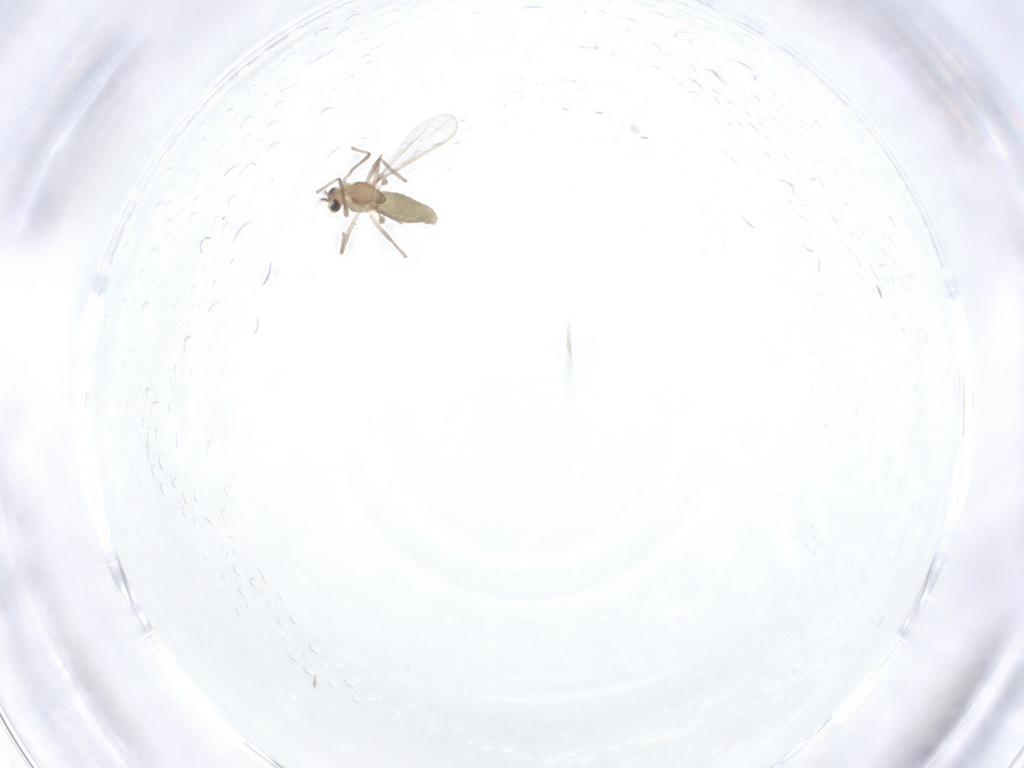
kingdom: Animalia
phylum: Arthropoda
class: Insecta
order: Diptera
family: Chironomidae
